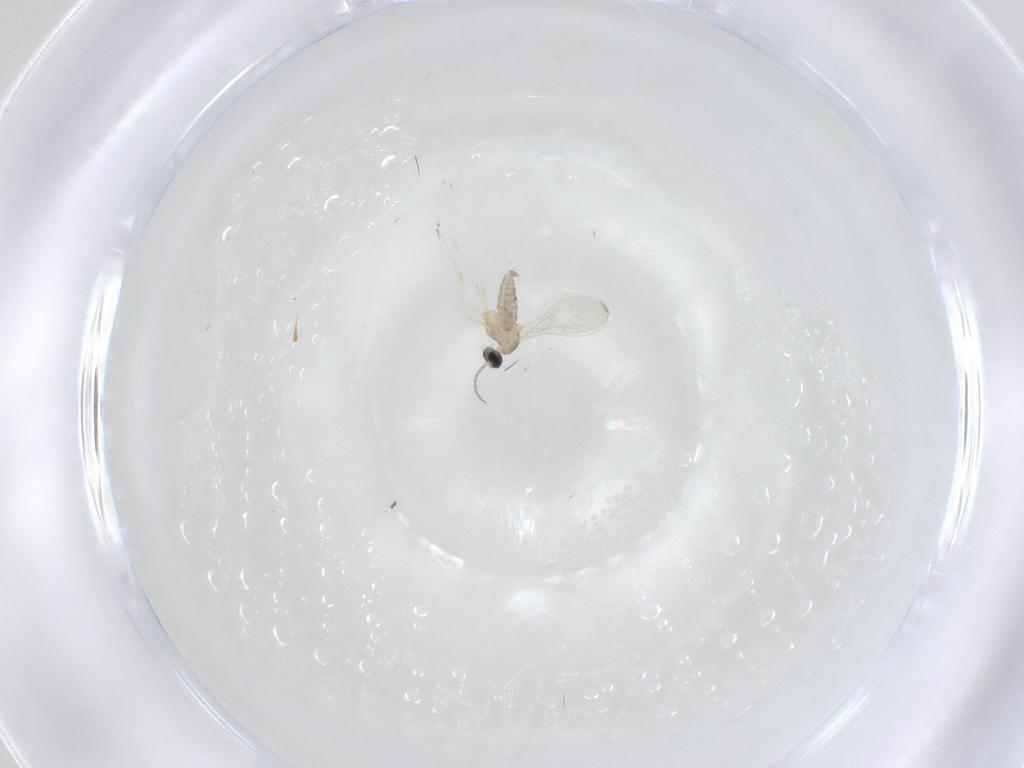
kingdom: Animalia
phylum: Arthropoda
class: Insecta
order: Diptera
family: Cecidomyiidae
